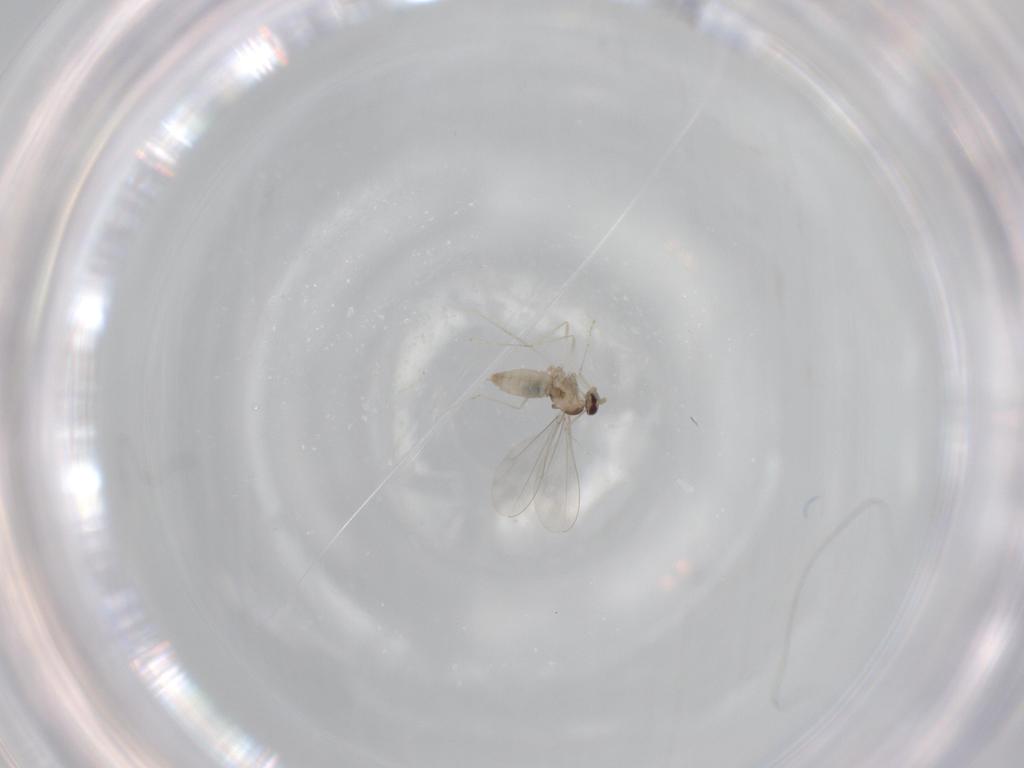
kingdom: Animalia
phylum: Arthropoda
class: Insecta
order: Diptera
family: Cecidomyiidae
